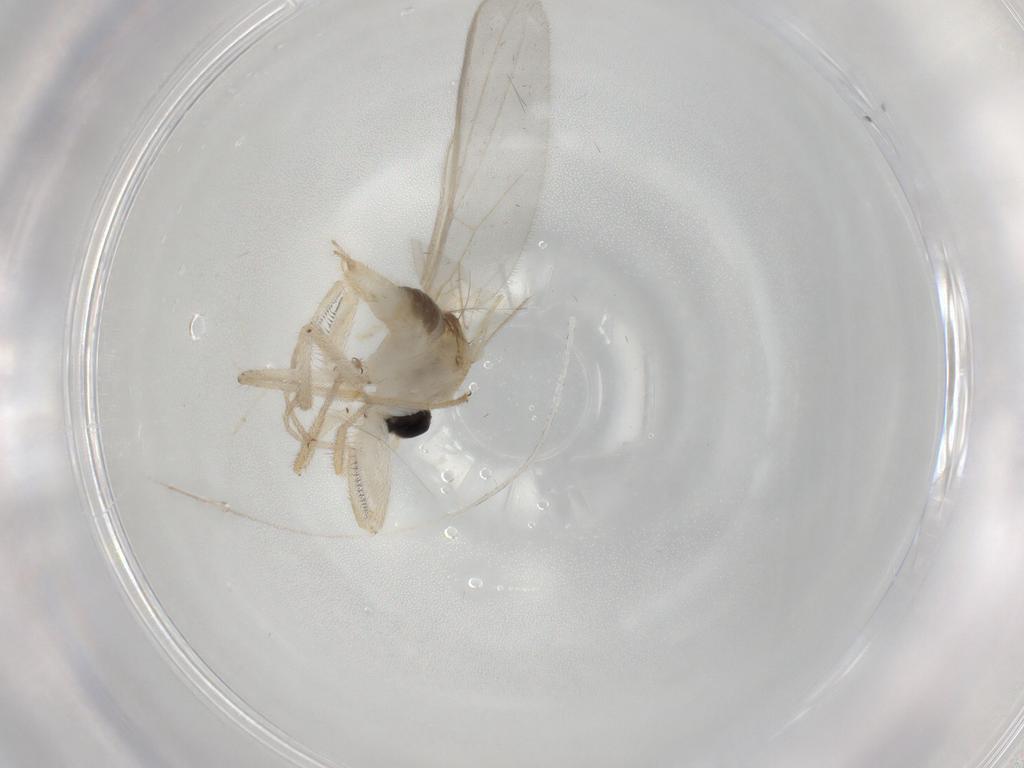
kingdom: Animalia
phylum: Arthropoda
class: Insecta
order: Diptera
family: Hybotidae
